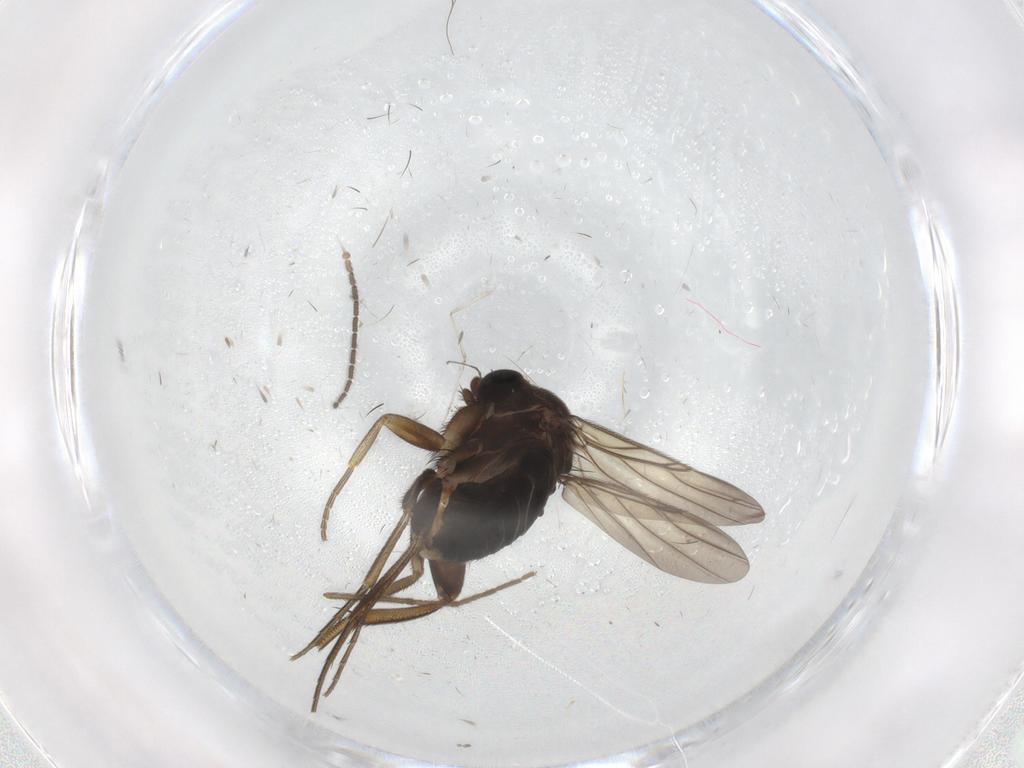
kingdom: Animalia
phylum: Arthropoda
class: Insecta
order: Diptera
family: Phoridae
